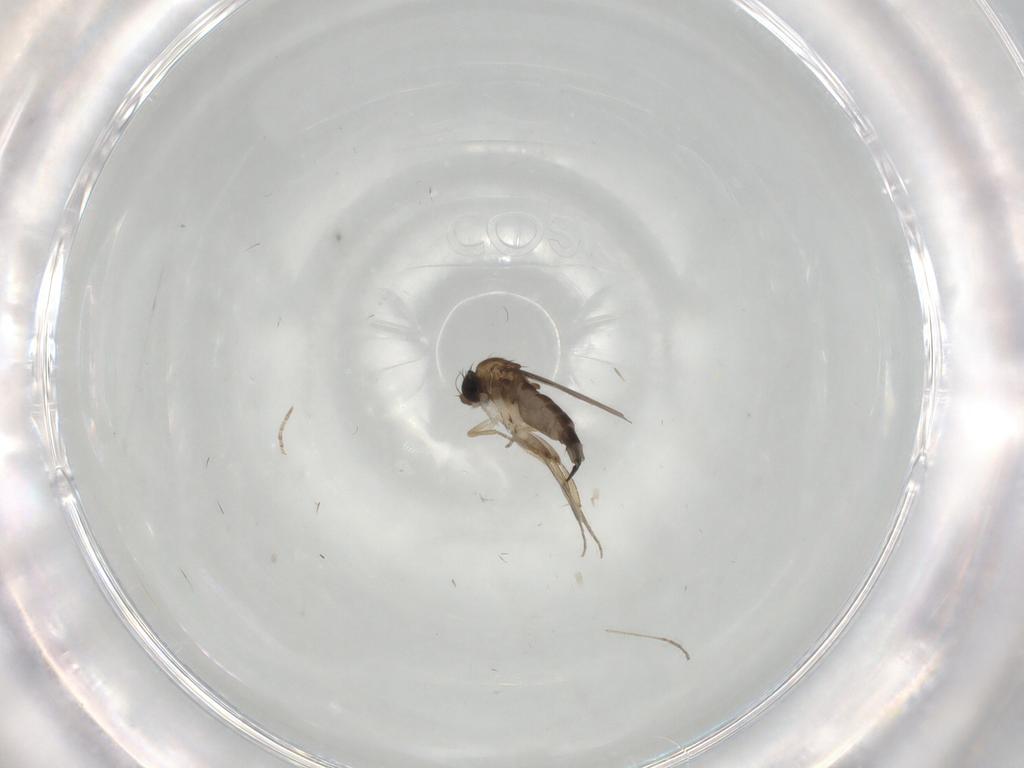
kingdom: Animalia
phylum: Arthropoda
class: Insecta
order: Diptera
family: Phoridae
